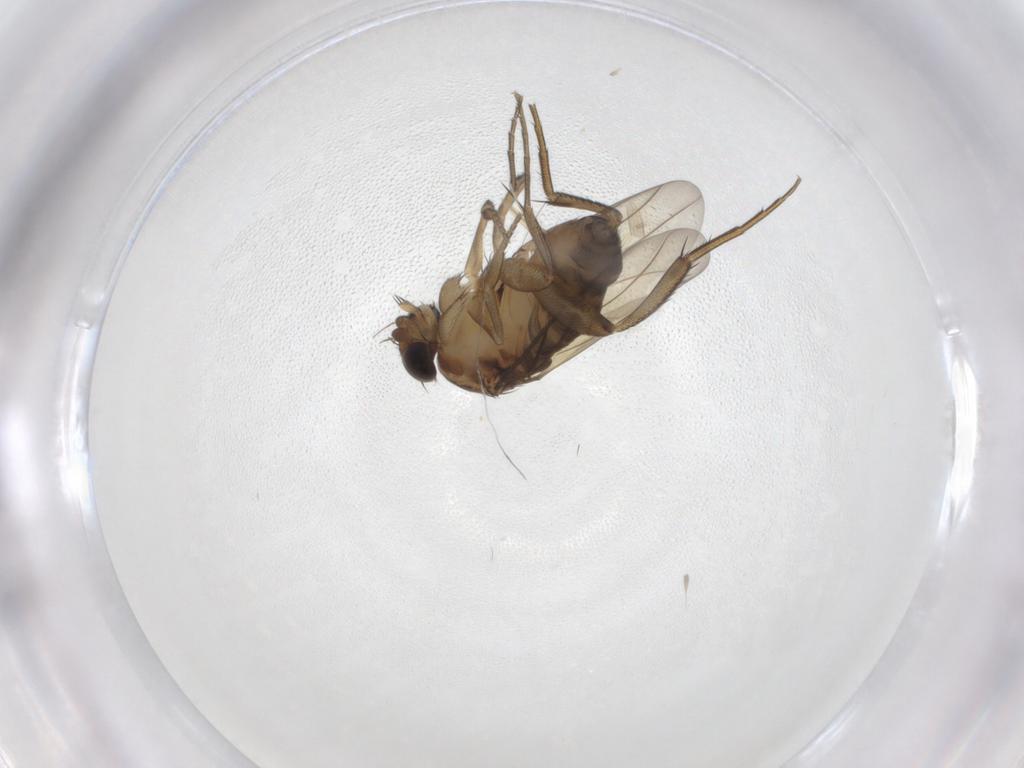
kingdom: Animalia
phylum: Arthropoda
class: Insecta
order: Diptera
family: Phoridae
